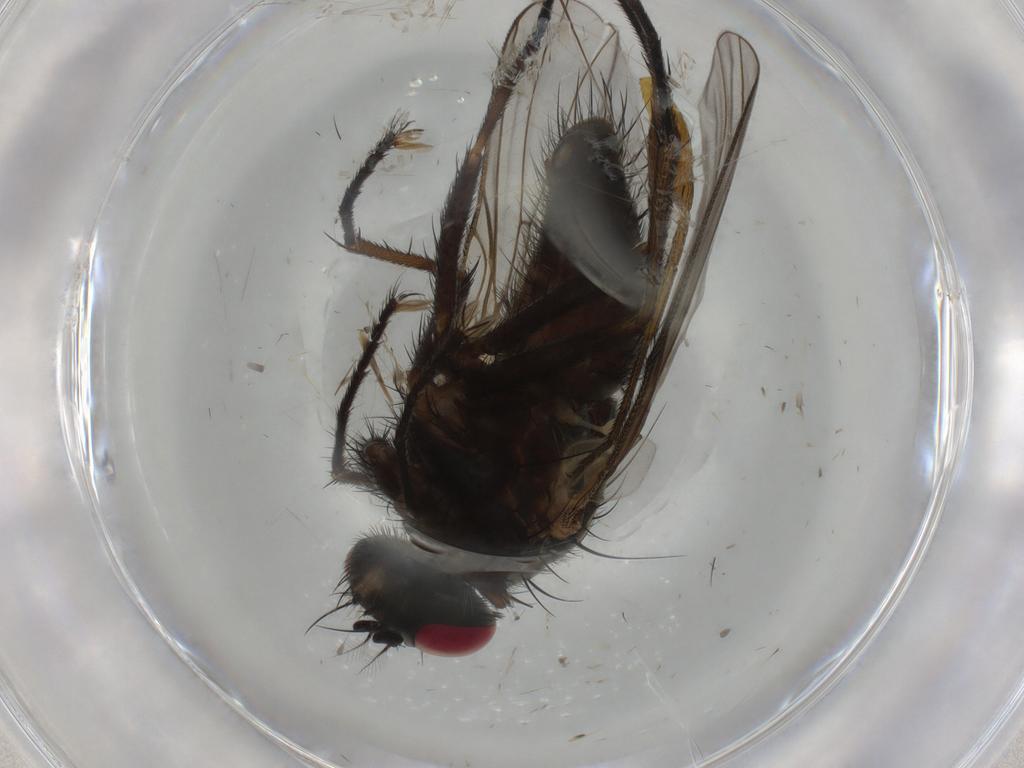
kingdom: Animalia
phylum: Arthropoda
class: Insecta
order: Diptera
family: Muscidae
